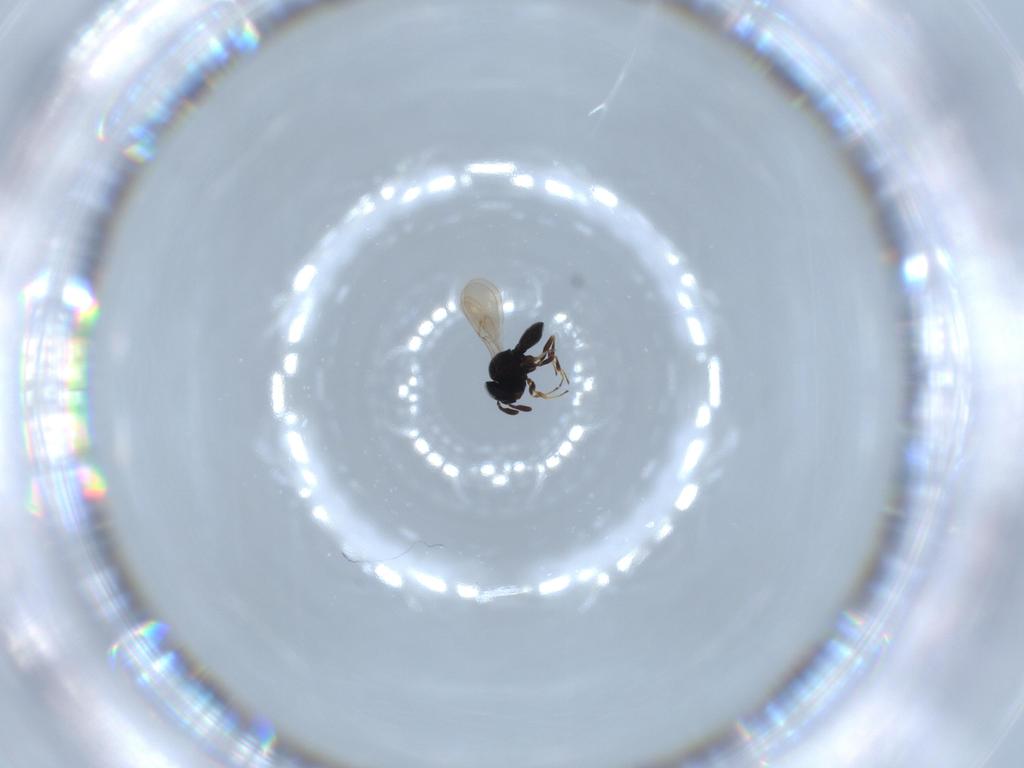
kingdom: Animalia
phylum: Arthropoda
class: Insecta
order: Hymenoptera
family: Scelionidae
